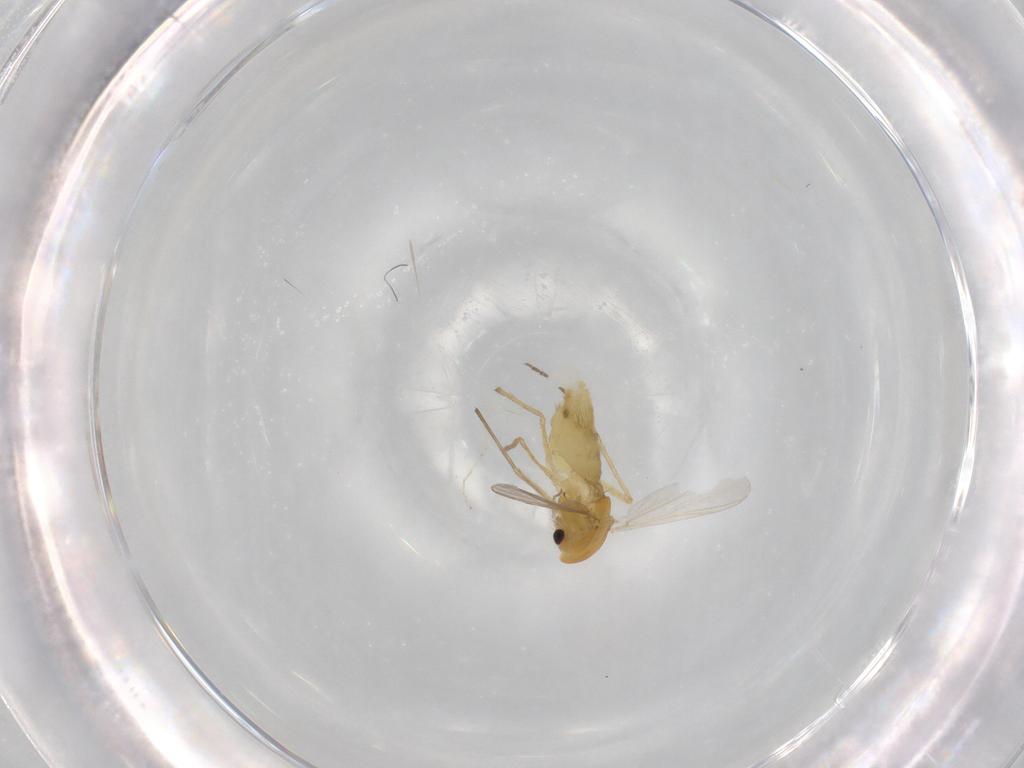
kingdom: Animalia
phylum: Arthropoda
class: Insecta
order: Diptera
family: Chironomidae
